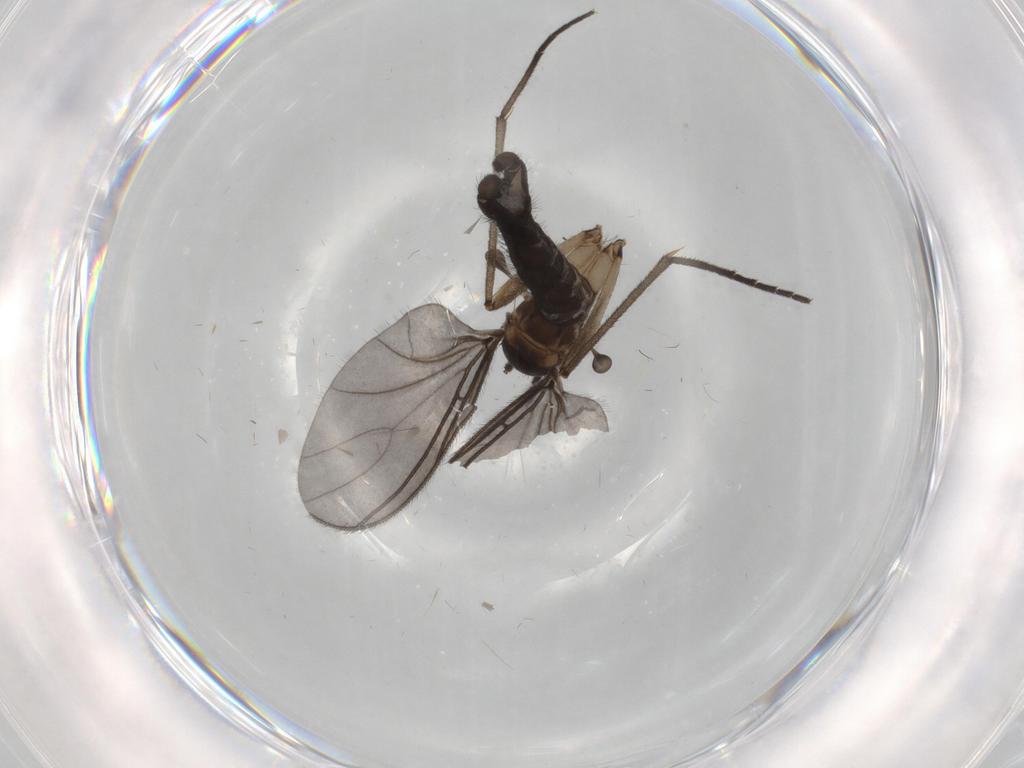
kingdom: Animalia
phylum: Arthropoda
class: Insecta
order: Diptera
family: Sciaridae
